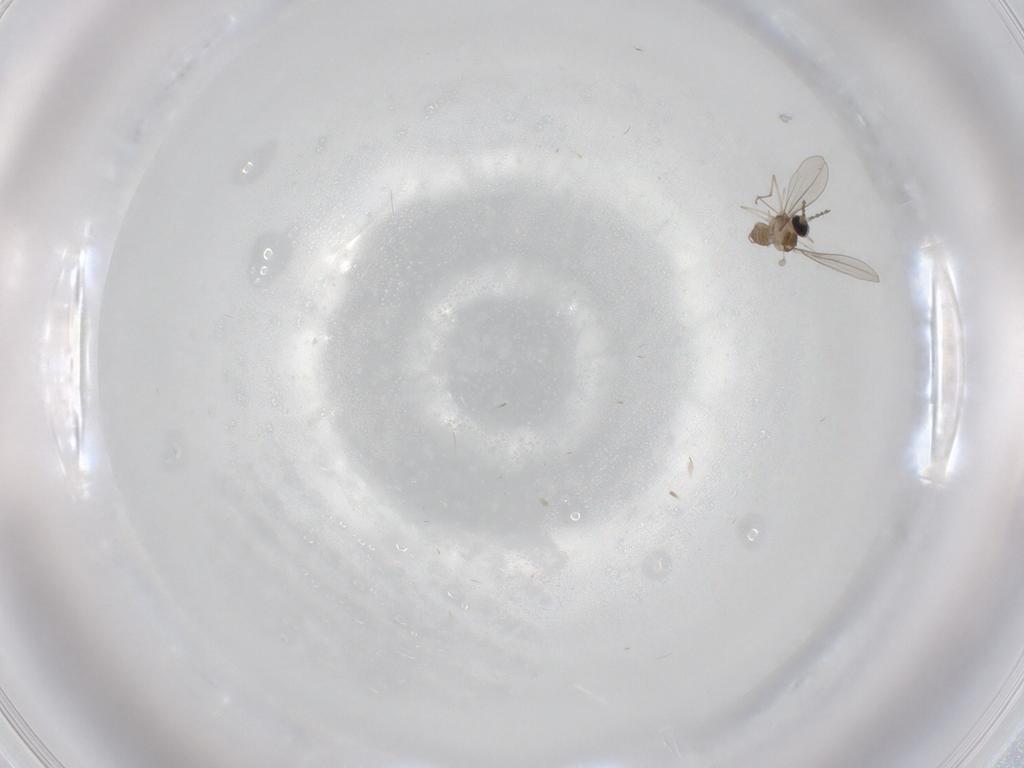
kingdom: Animalia
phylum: Arthropoda
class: Insecta
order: Diptera
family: Cecidomyiidae
